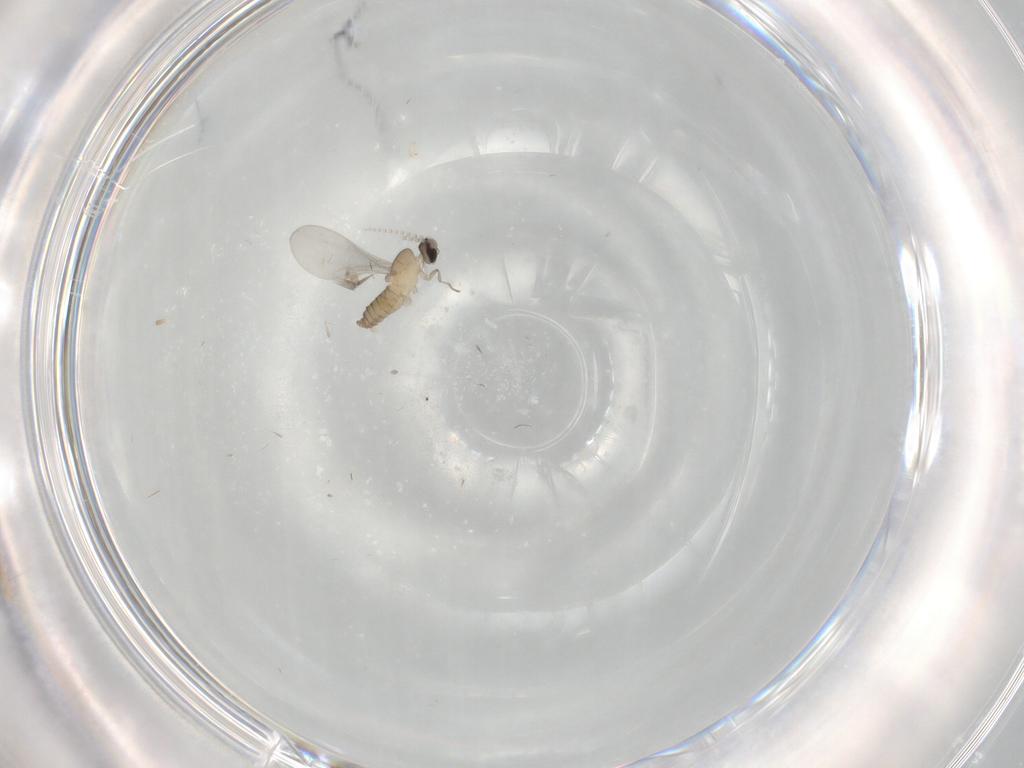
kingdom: Animalia
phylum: Arthropoda
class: Insecta
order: Diptera
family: Cecidomyiidae
